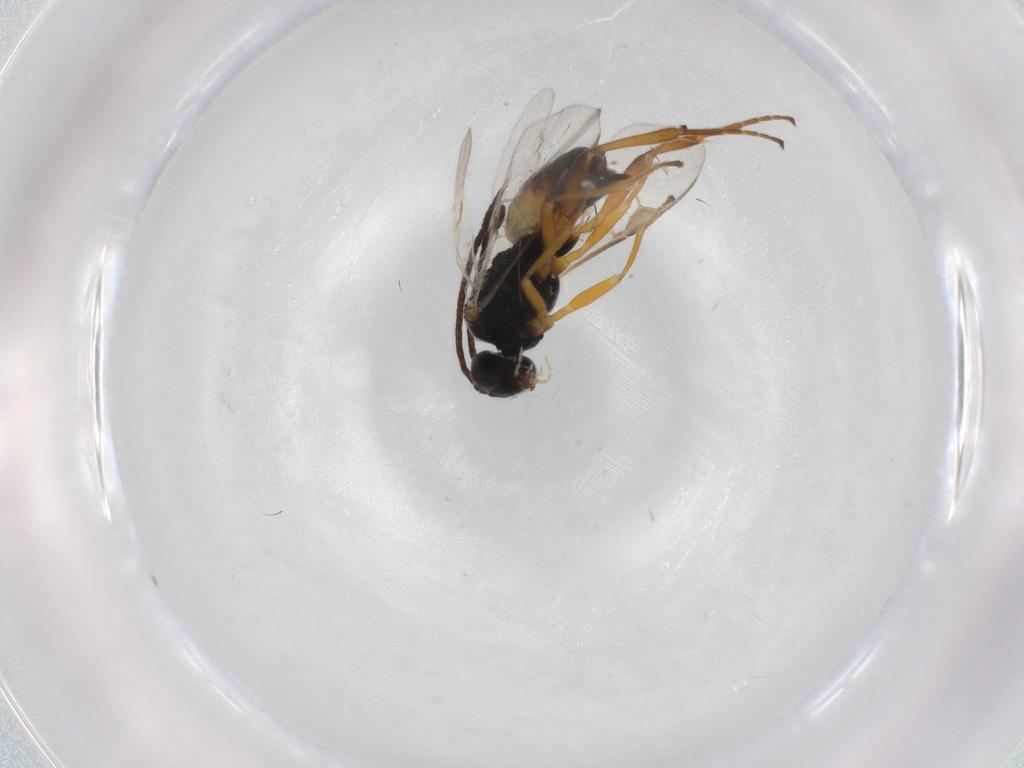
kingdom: Animalia
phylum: Arthropoda
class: Insecta
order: Hymenoptera
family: Braconidae
